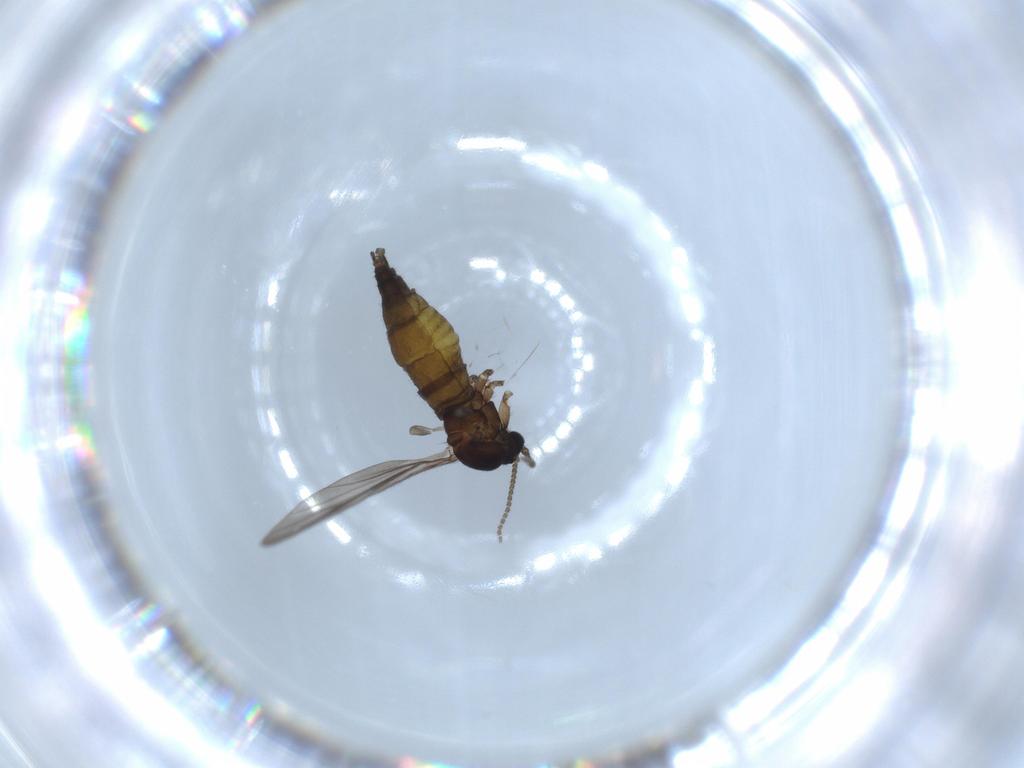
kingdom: Animalia
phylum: Arthropoda
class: Insecta
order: Diptera
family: Sciaridae
